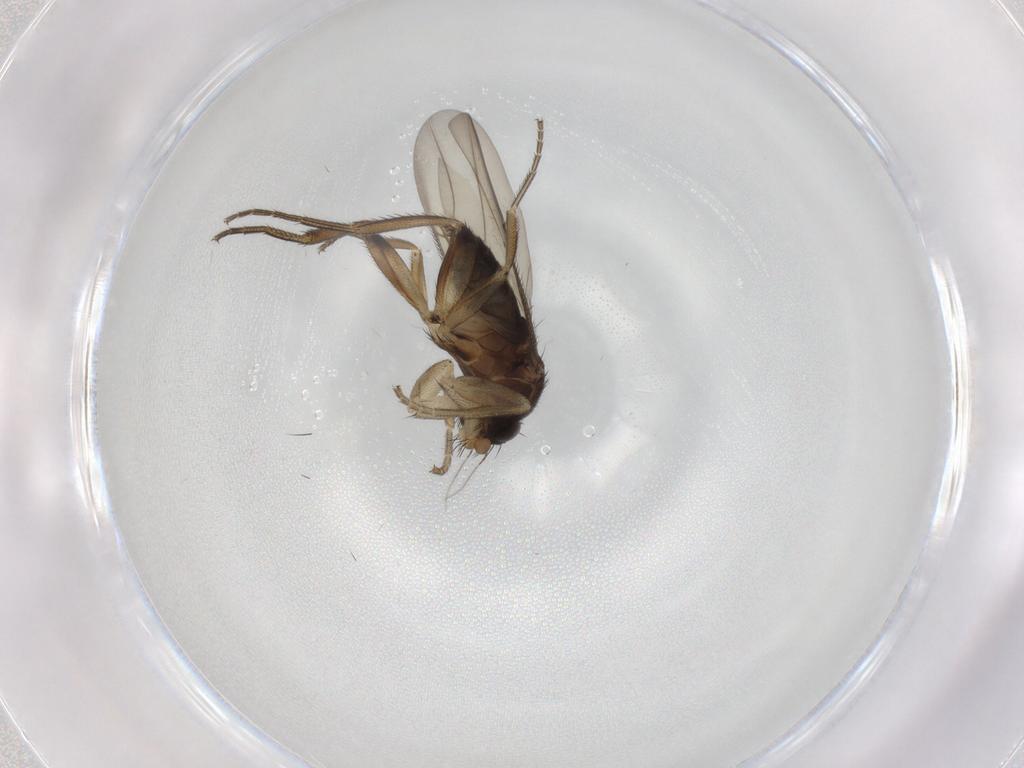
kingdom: Animalia
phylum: Arthropoda
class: Insecta
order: Diptera
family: Phoridae
